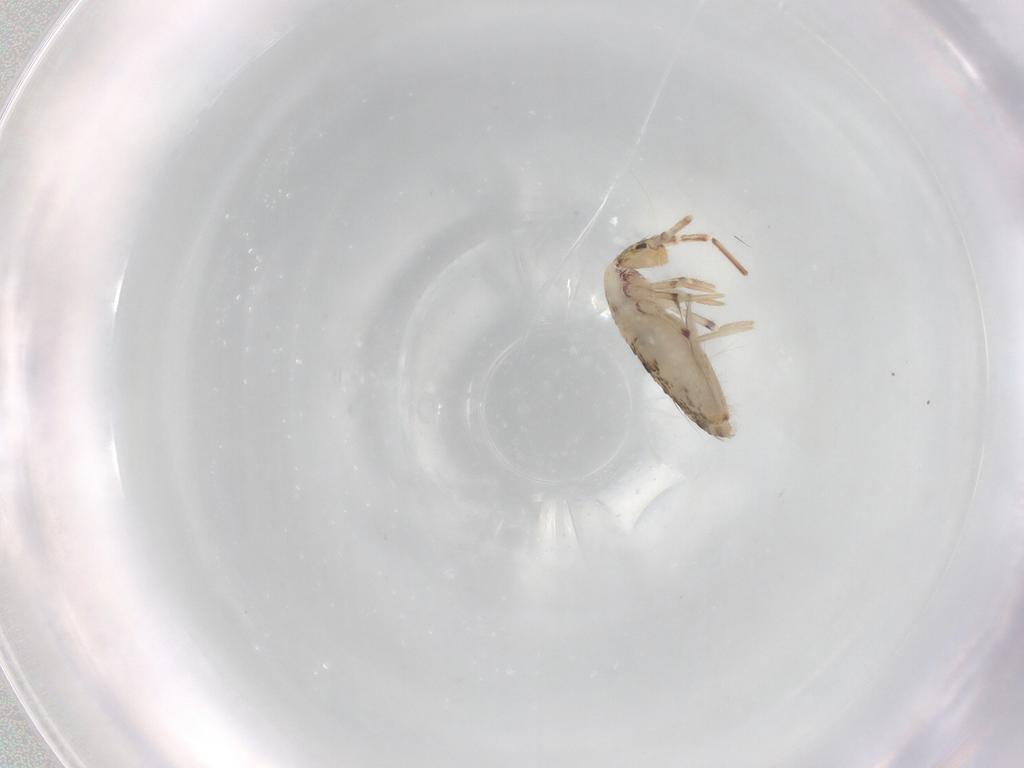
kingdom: Animalia
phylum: Arthropoda
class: Collembola
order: Entomobryomorpha
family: Entomobryidae
